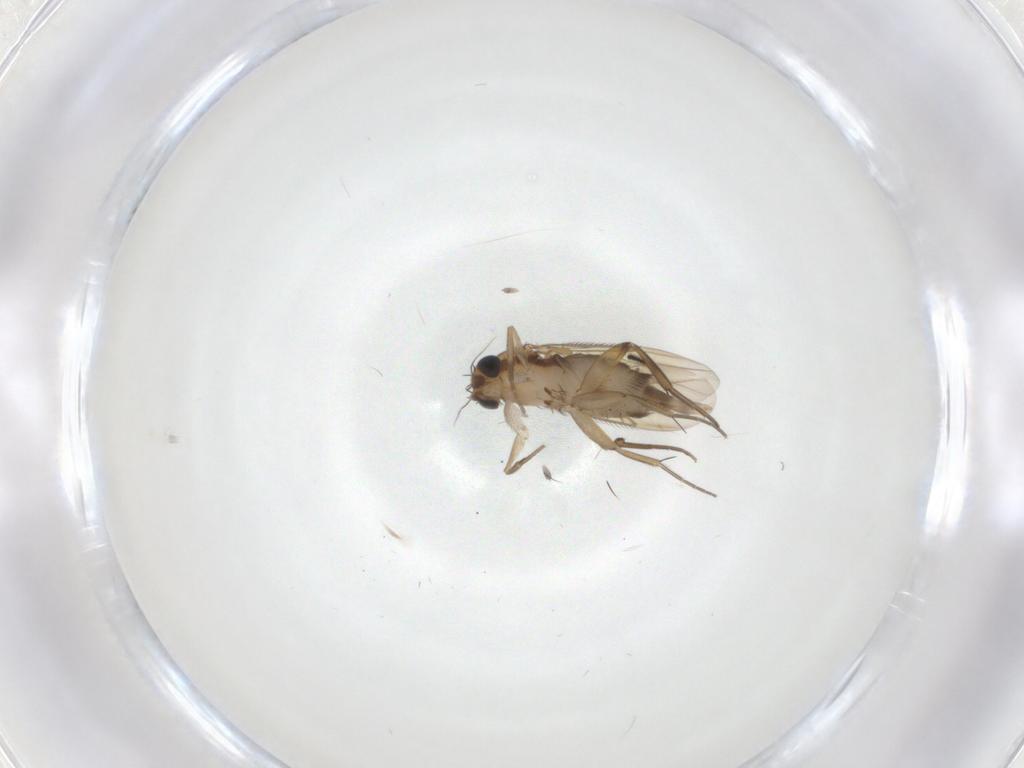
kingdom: Animalia
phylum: Arthropoda
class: Insecta
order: Diptera
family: Phoridae
